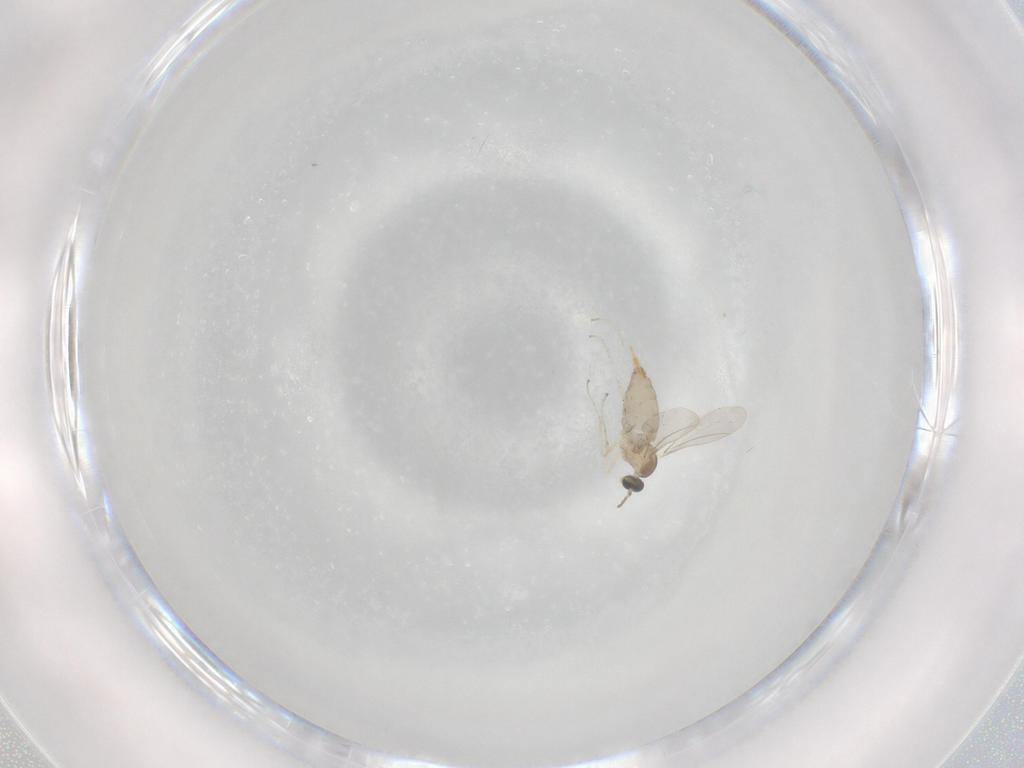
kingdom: Animalia
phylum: Arthropoda
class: Insecta
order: Diptera
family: Cecidomyiidae
